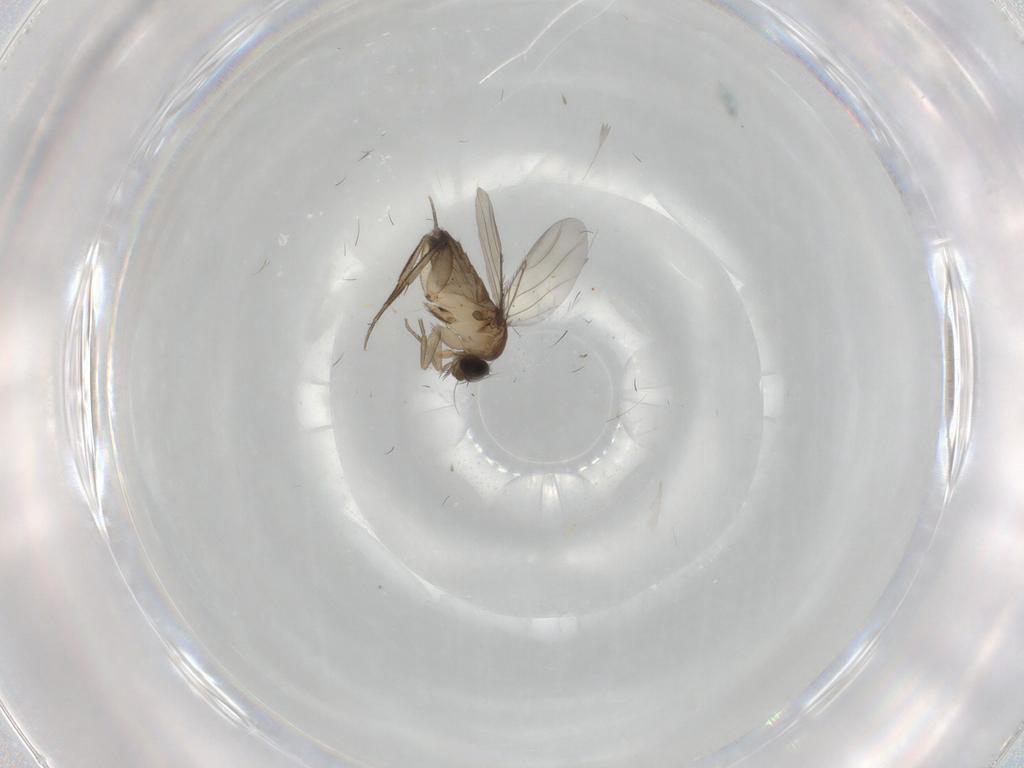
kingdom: Animalia
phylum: Arthropoda
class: Insecta
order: Diptera
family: Phoridae
